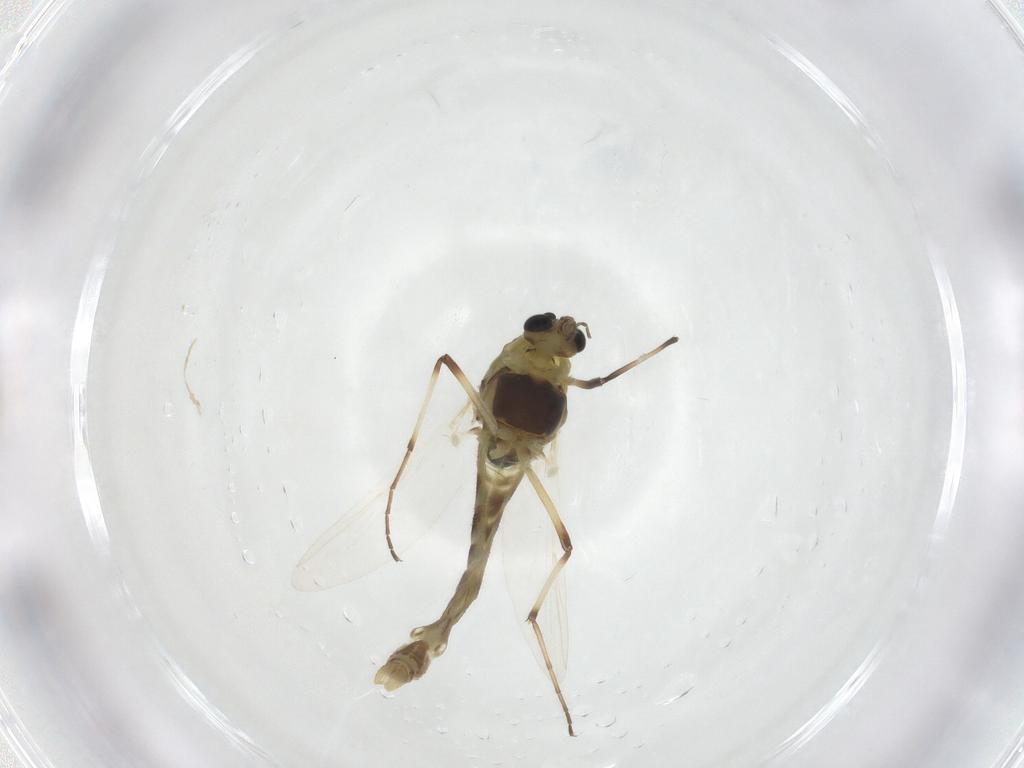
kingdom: Animalia
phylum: Arthropoda
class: Insecta
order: Diptera
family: Chironomidae
